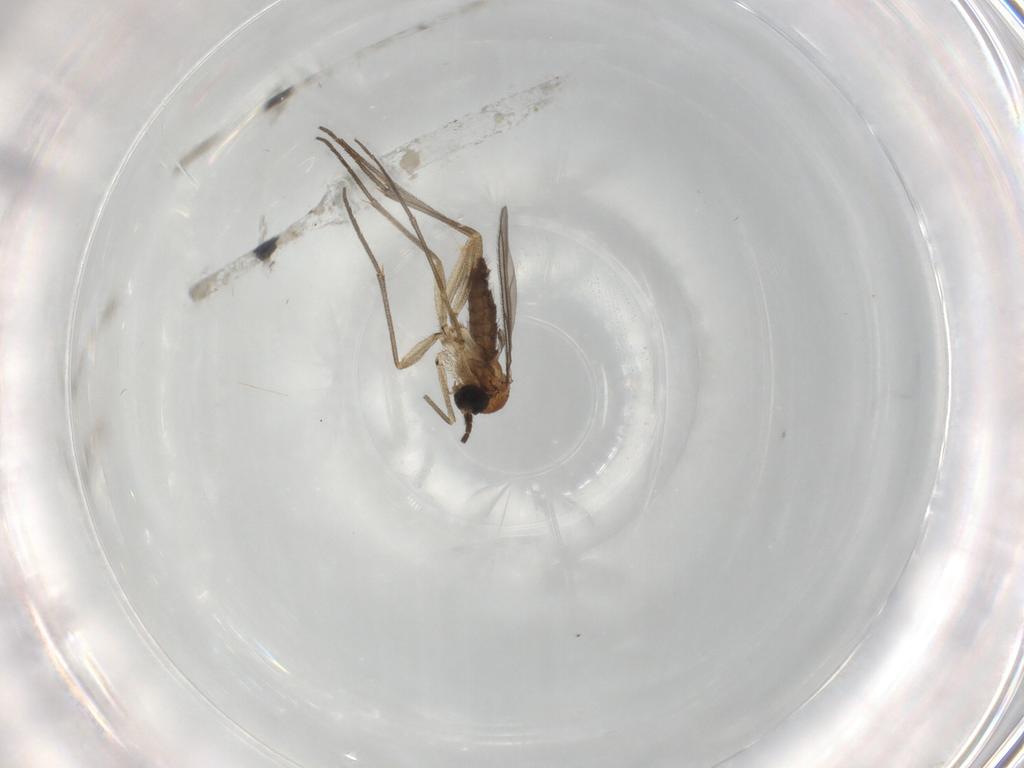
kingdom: Animalia
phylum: Arthropoda
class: Insecta
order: Diptera
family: Sciaridae
